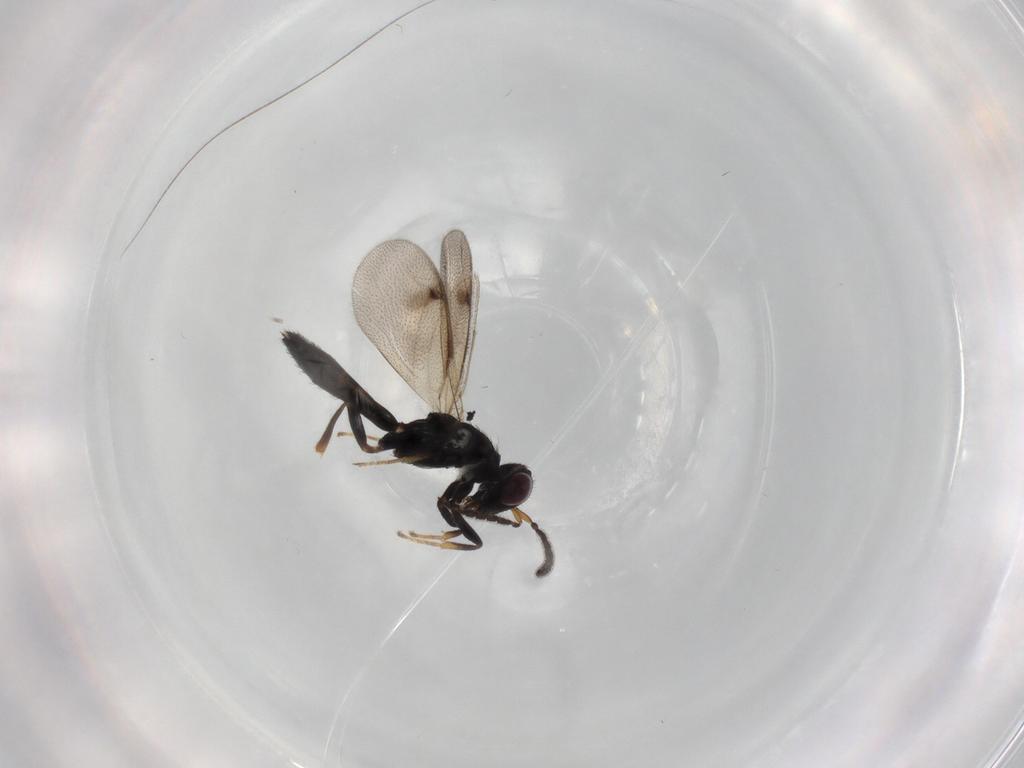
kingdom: Animalia
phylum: Arthropoda
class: Insecta
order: Hymenoptera
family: Pteromalidae
